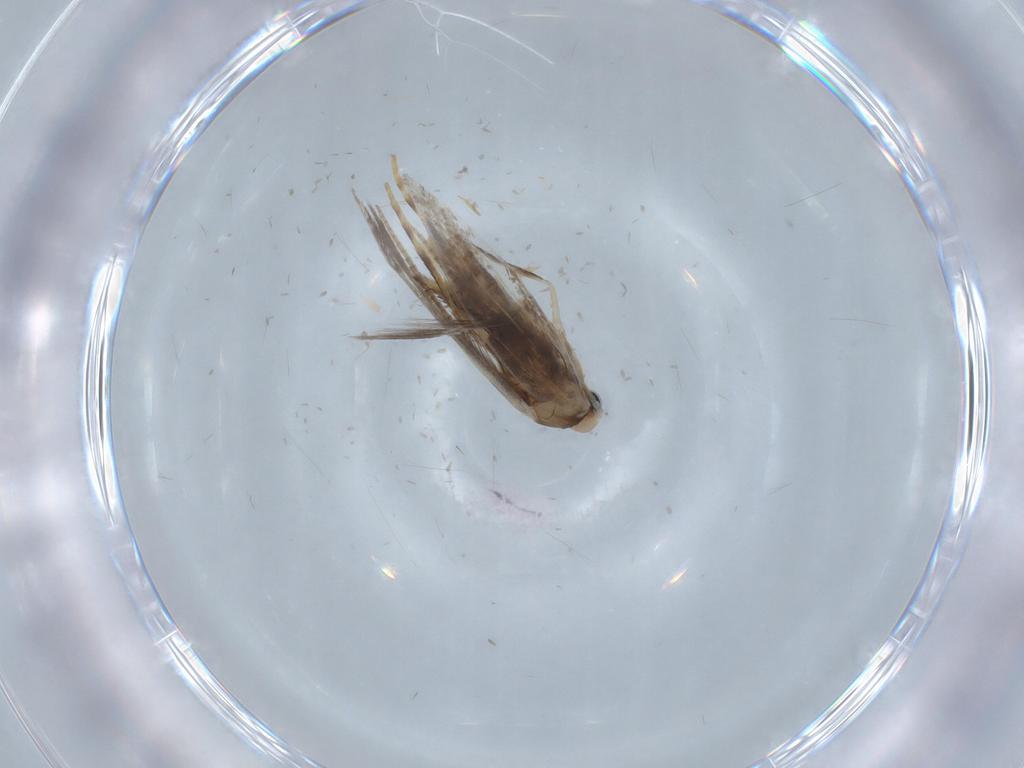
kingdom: Animalia
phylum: Arthropoda
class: Insecta
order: Lepidoptera
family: Gracillariidae
